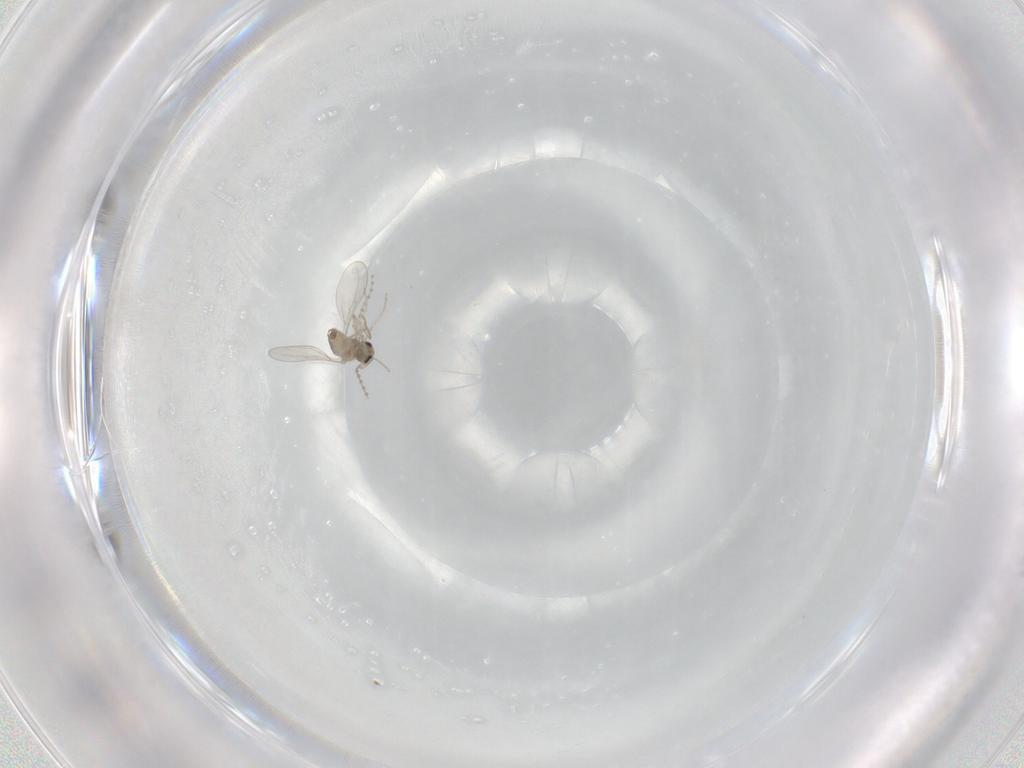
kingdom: Animalia
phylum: Arthropoda
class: Insecta
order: Diptera
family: Cecidomyiidae
